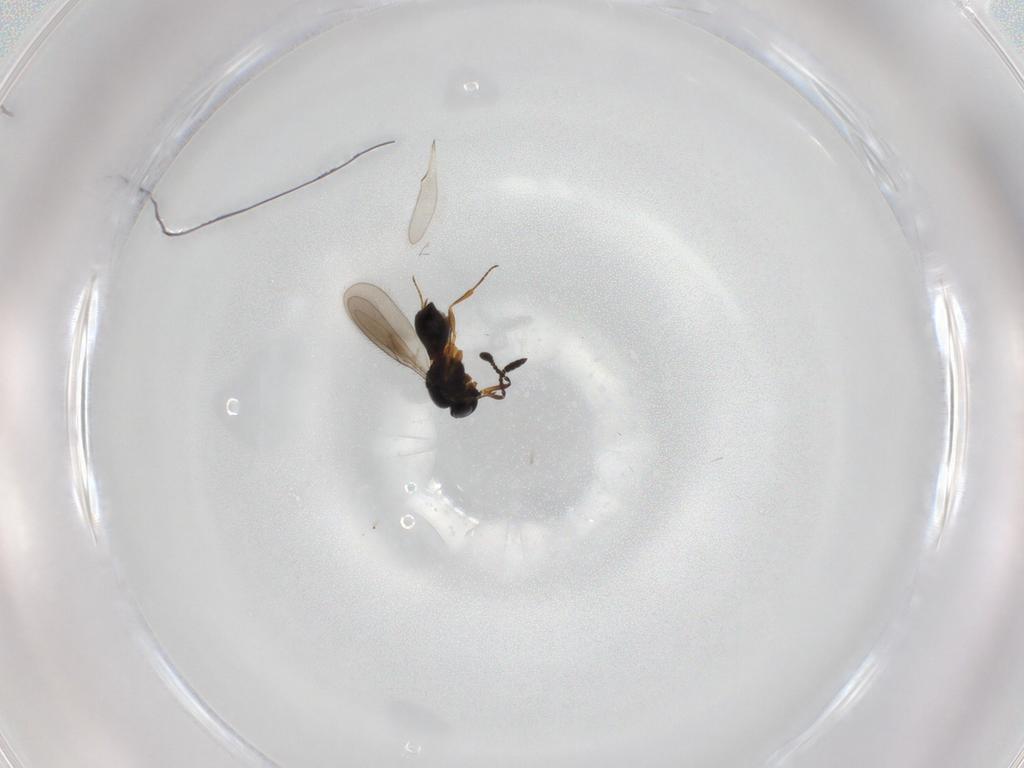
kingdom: Animalia
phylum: Arthropoda
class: Insecta
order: Hymenoptera
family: Scelionidae
